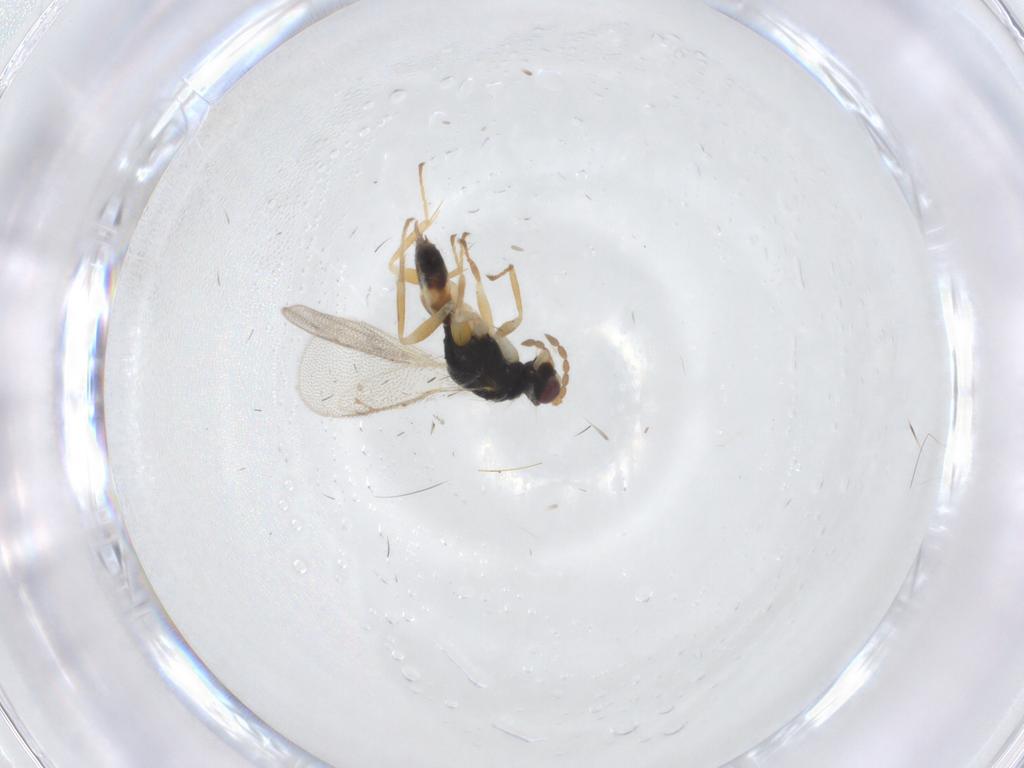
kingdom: Animalia
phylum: Arthropoda
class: Insecta
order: Hymenoptera
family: Eulophidae
